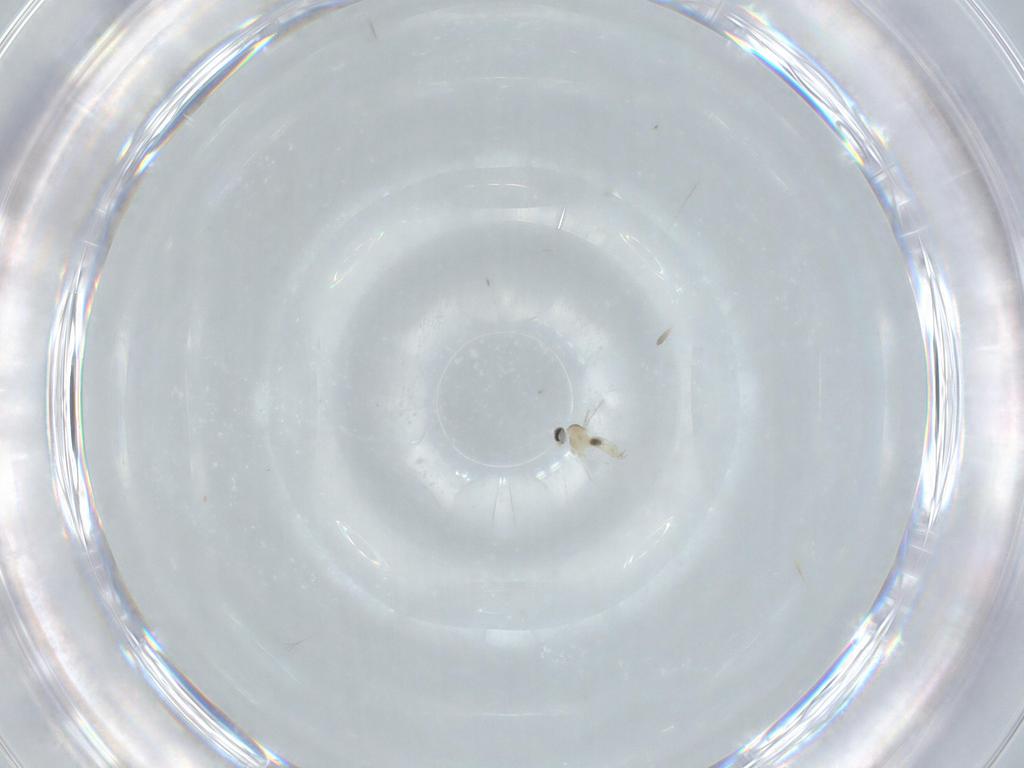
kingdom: Animalia
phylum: Arthropoda
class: Insecta
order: Diptera
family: Cecidomyiidae
